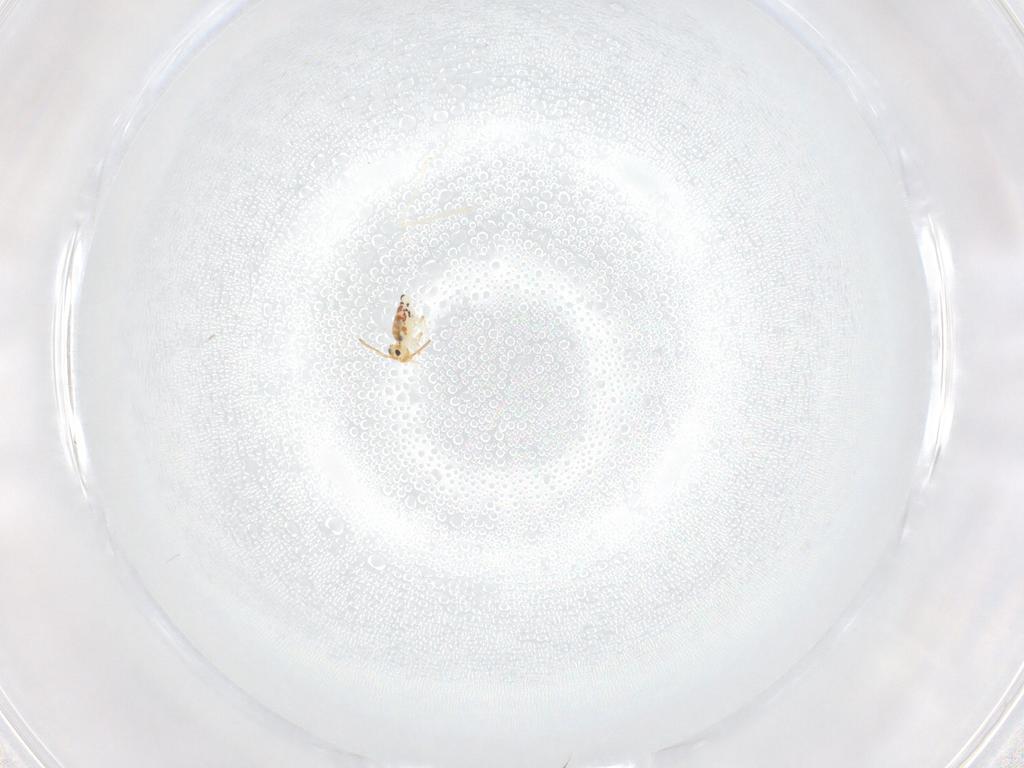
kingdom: Animalia
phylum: Arthropoda
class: Collembola
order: Symphypleona
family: Bourletiellidae
